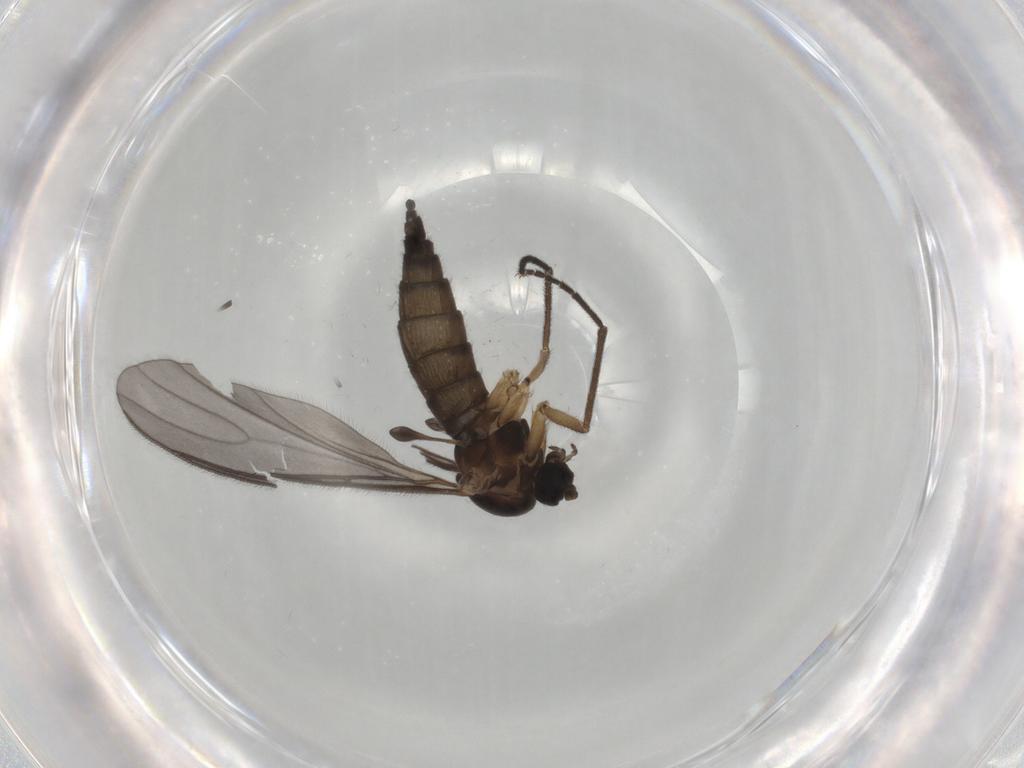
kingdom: Animalia
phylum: Arthropoda
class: Insecta
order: Diptera
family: Sciaridae
